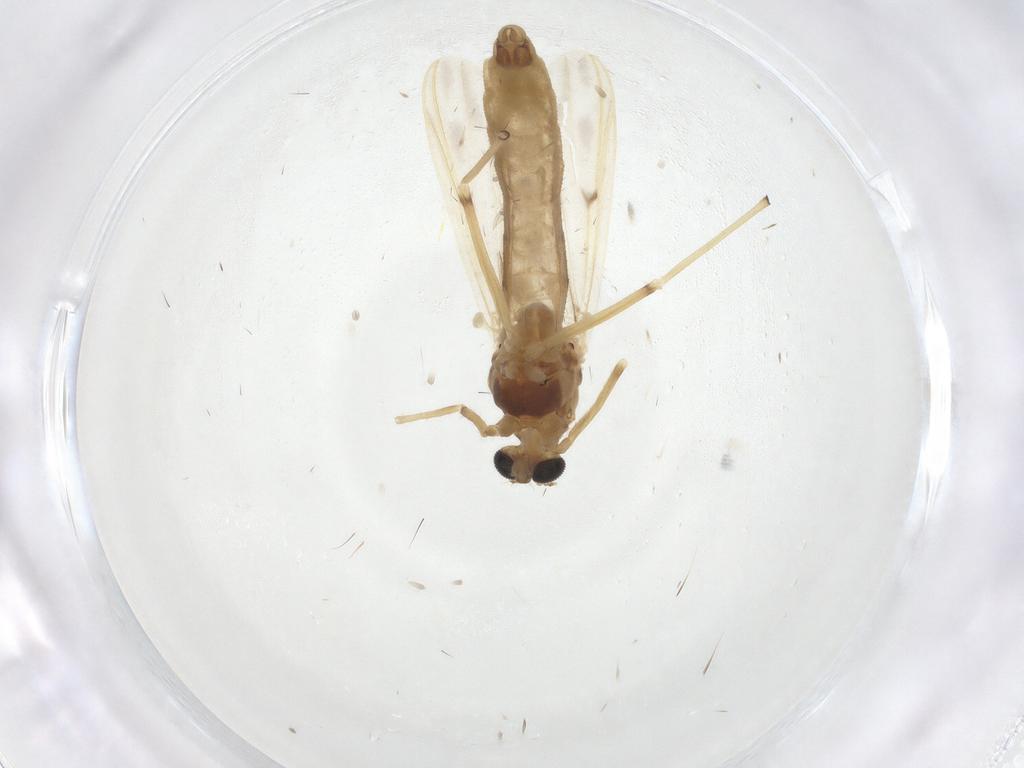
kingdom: Animalia
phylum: Arthropoda
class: Insecta
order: Diptera
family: Chironomidae
